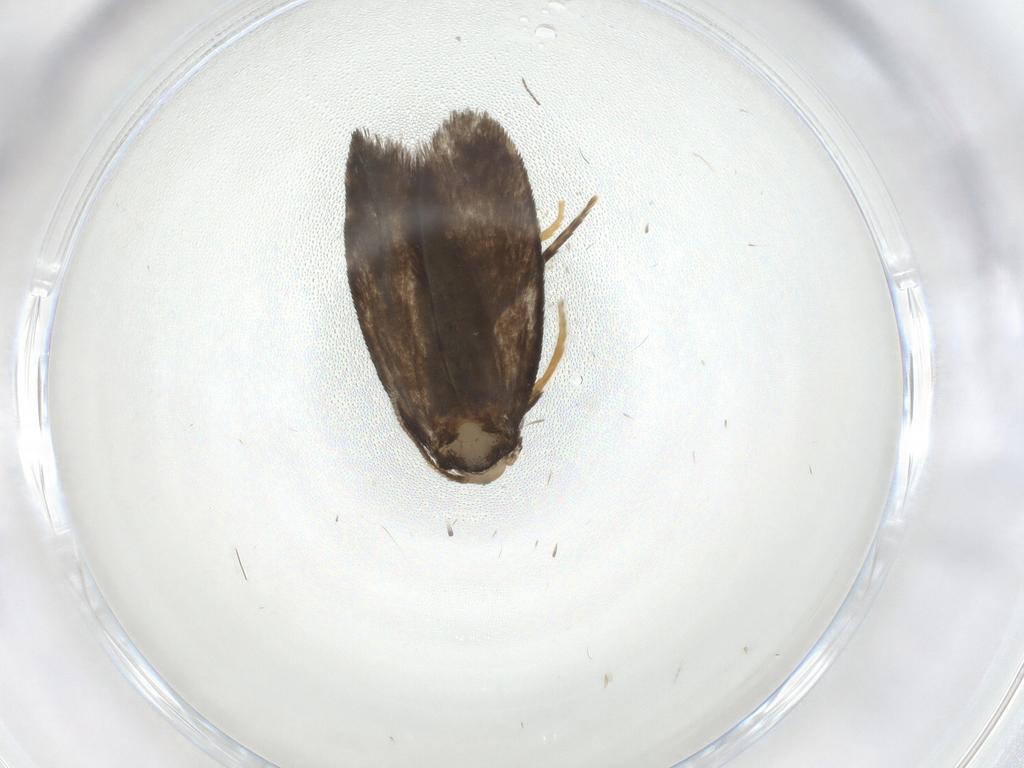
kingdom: Animalia
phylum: Arthropoda
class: Insecta
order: Lepidoptera
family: Psychidae
